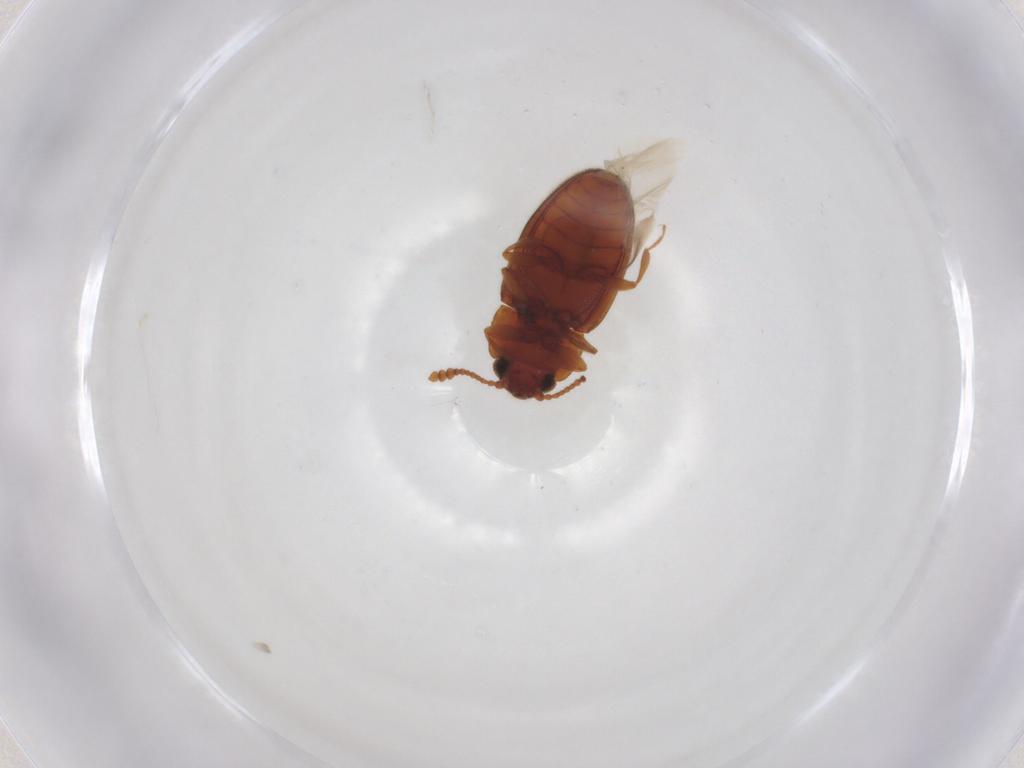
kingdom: Animalia
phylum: Arthropoda
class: Insecta
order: Coleoptera
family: Erotylidae
